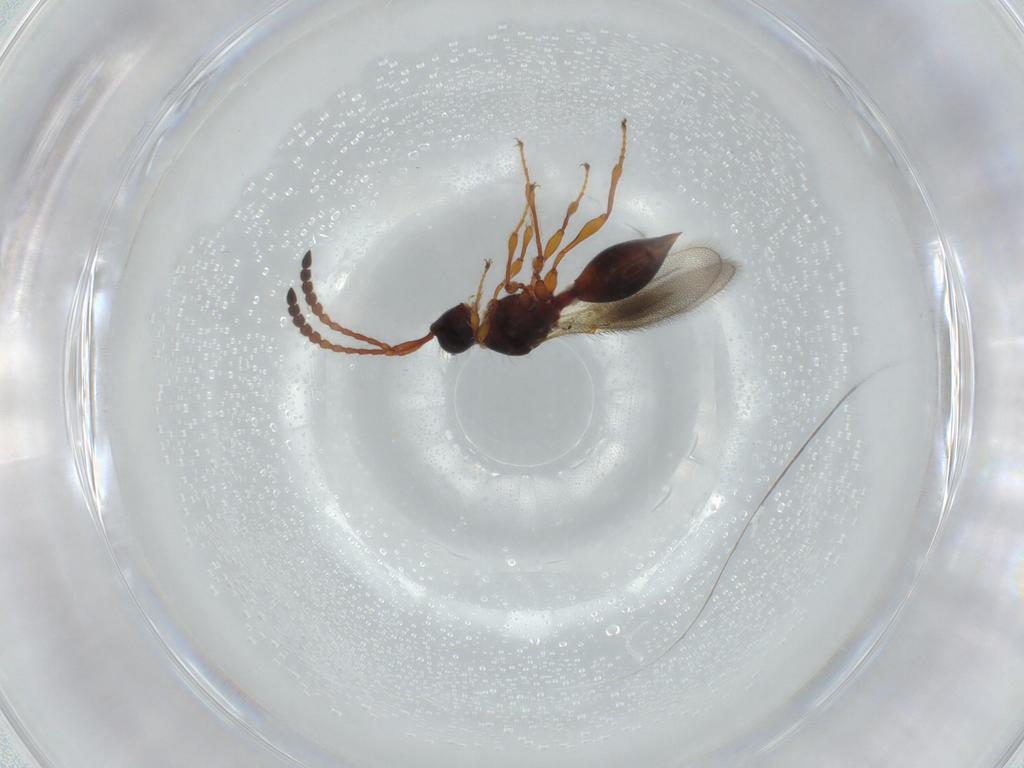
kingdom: Animalia
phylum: Arthropoda
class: Insecta
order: Hymenoptera
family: Diapriidae
